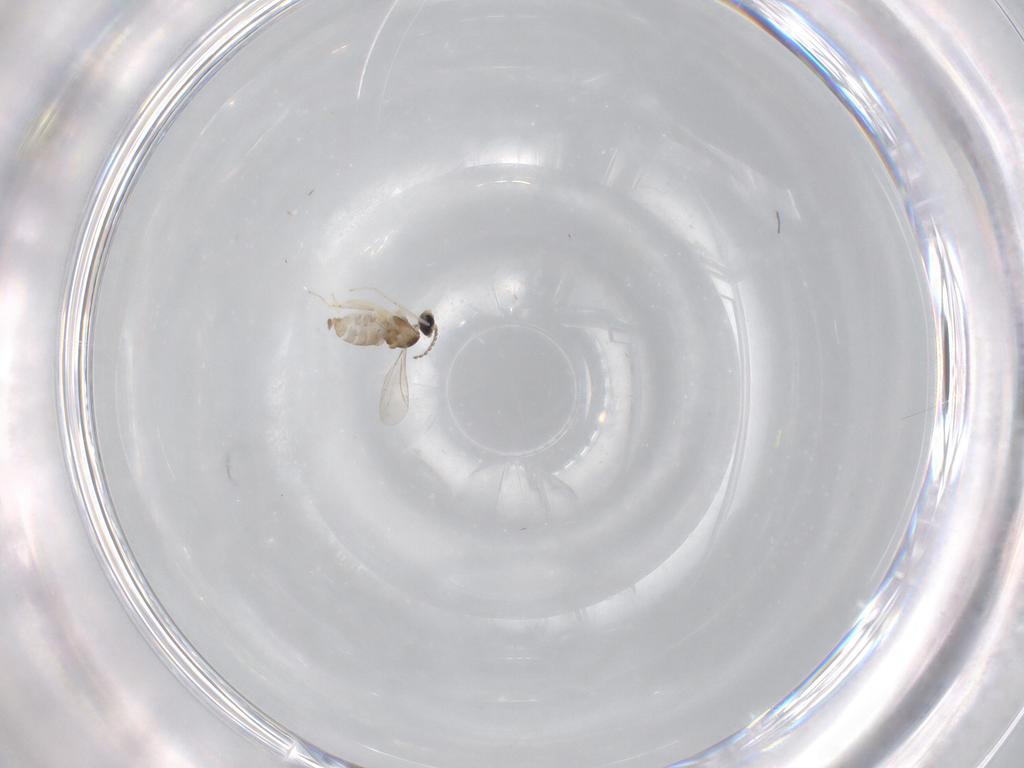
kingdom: Animalia
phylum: Arthropoda
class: Insecta
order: Diptera
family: Cecidomyiidae
